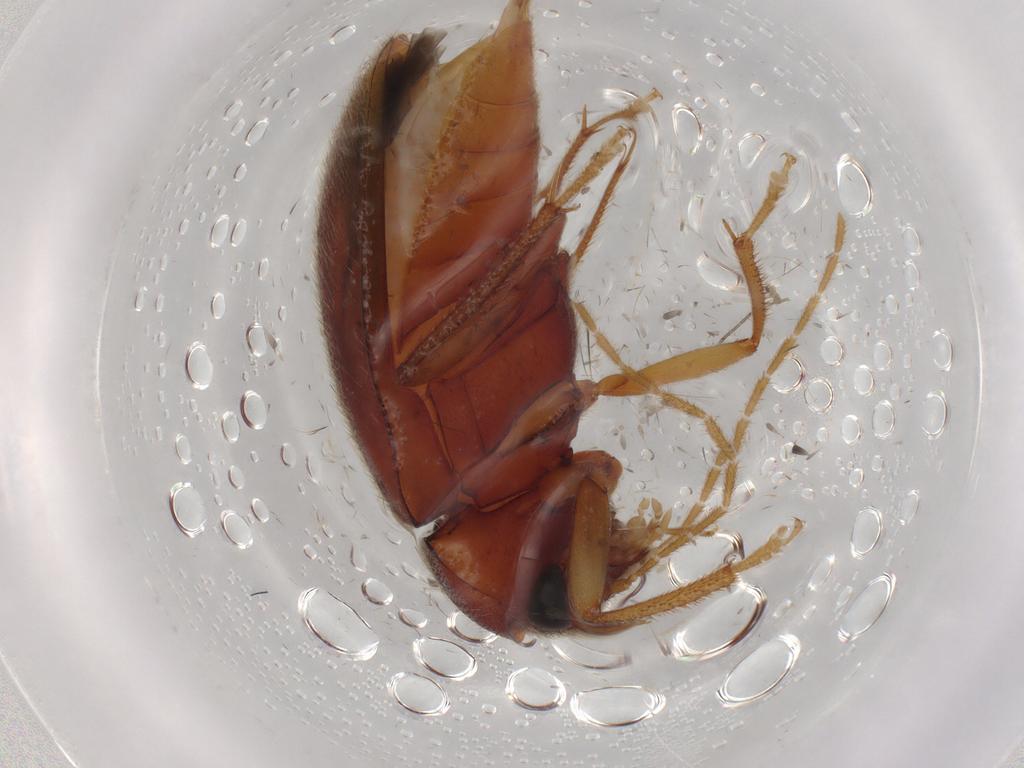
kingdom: Animalia
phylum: Arthropoda
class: Insecta
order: Coleoptera
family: Ptilodactylidae
